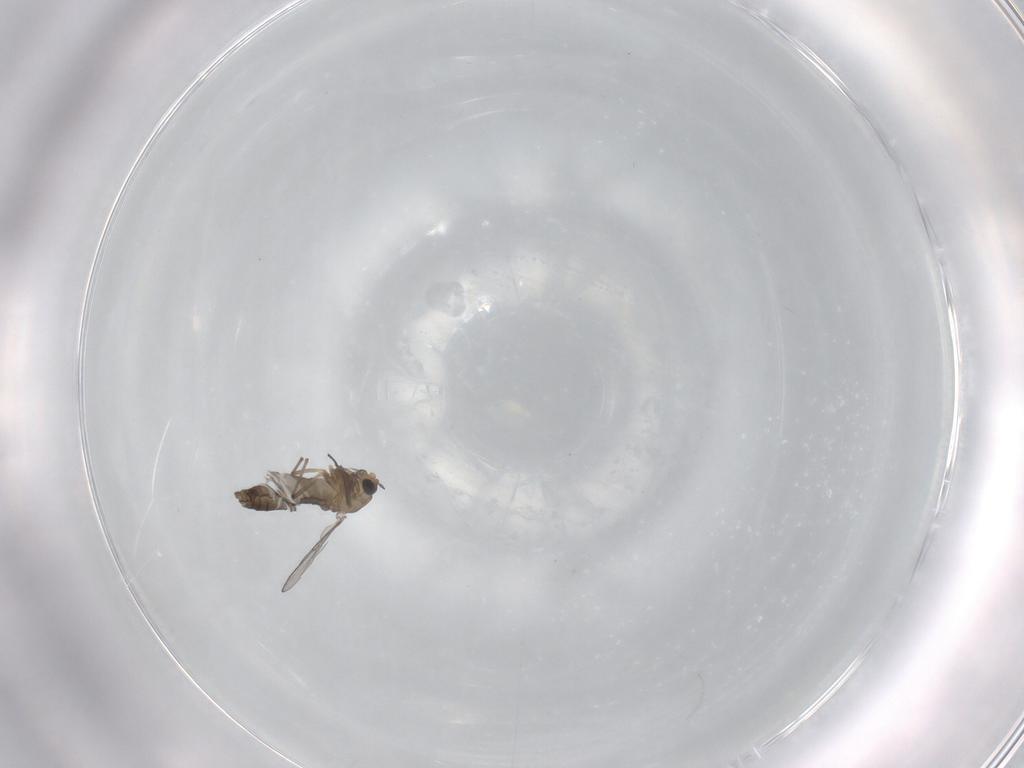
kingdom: Animalia
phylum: Arthropoda
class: Insecta
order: Diptera
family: Chironomidae
